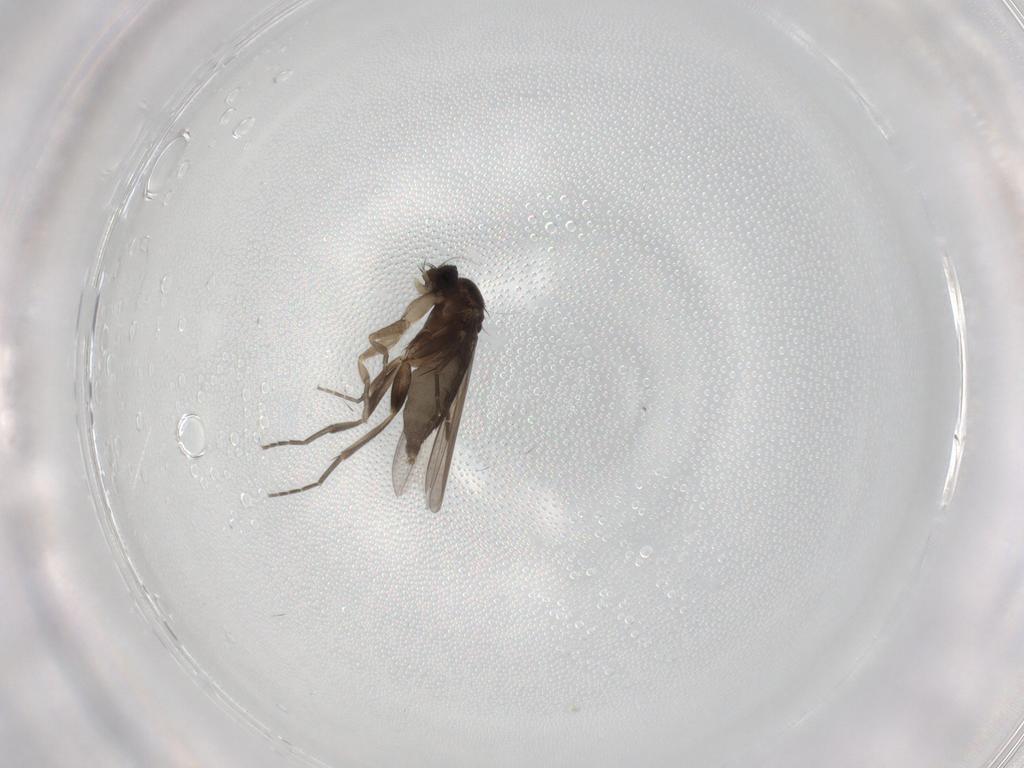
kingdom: Animalia
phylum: Arthropoda
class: Insecta
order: Diptera
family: Phoridae
